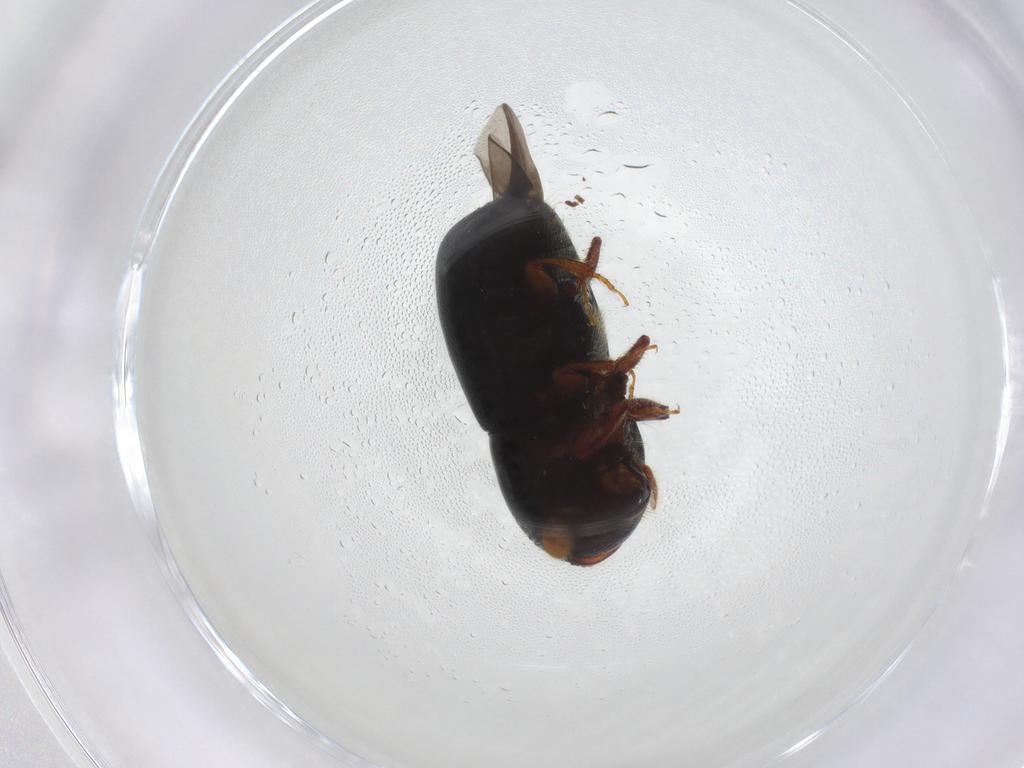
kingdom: Animalia
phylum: Arthropoda
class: Insecta
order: Coleoptera
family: Curculionidae
